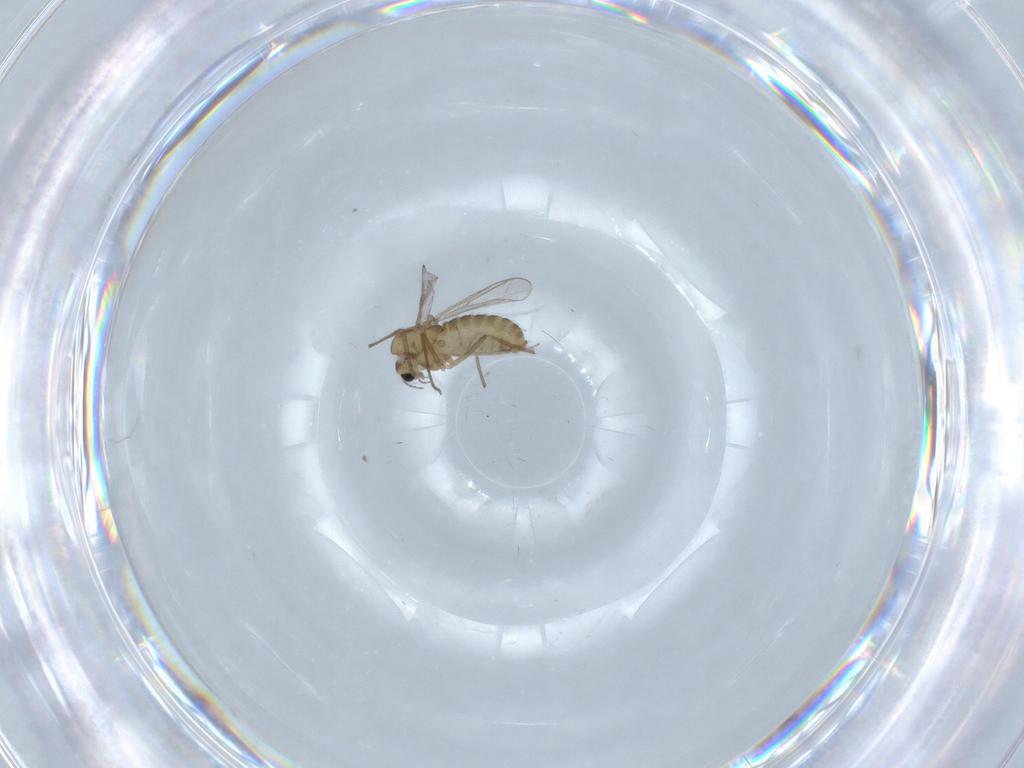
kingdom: Animalia
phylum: Arthropoda
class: Insecta
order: Diptera
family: Chironomidae
